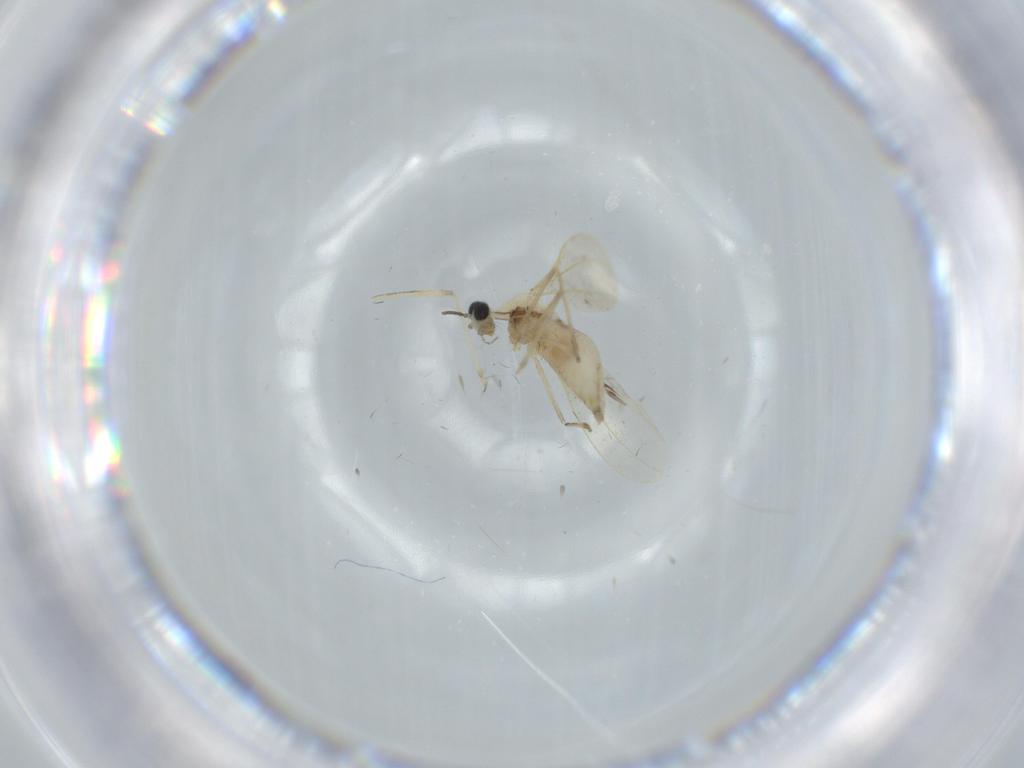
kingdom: Animalia
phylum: Arthropoda
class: Insecta
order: Diptera
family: Cecidomyiidae
